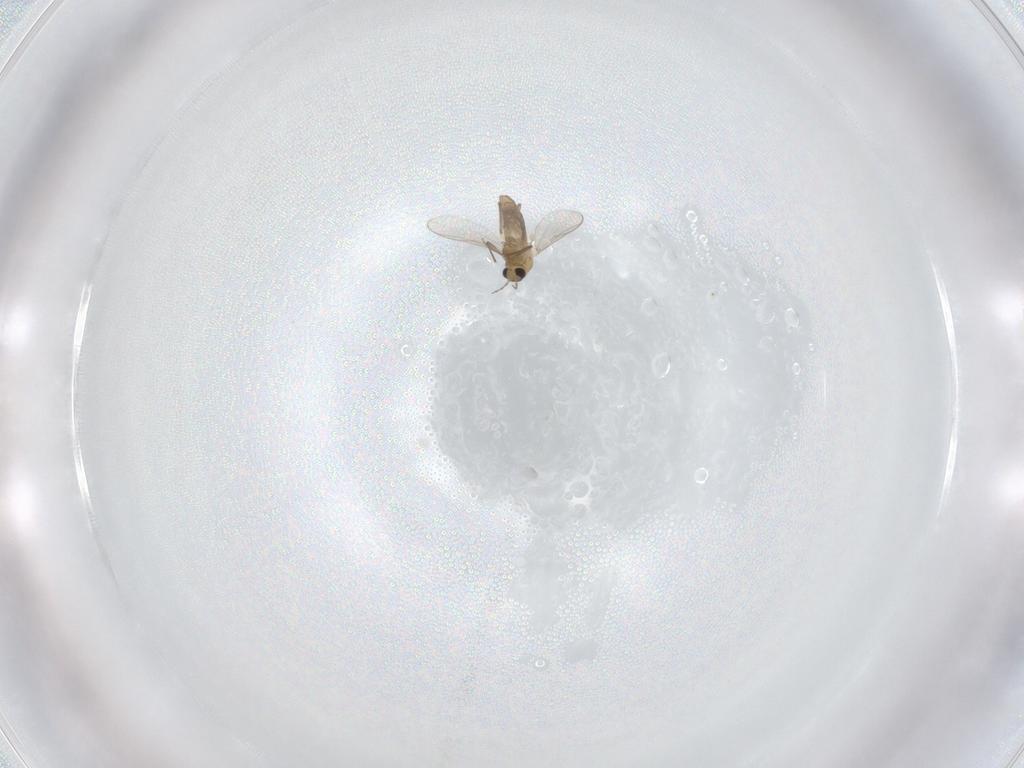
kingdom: Animalia
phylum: Arthropoda
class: Insecta
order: Diptera
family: Chironomidae
